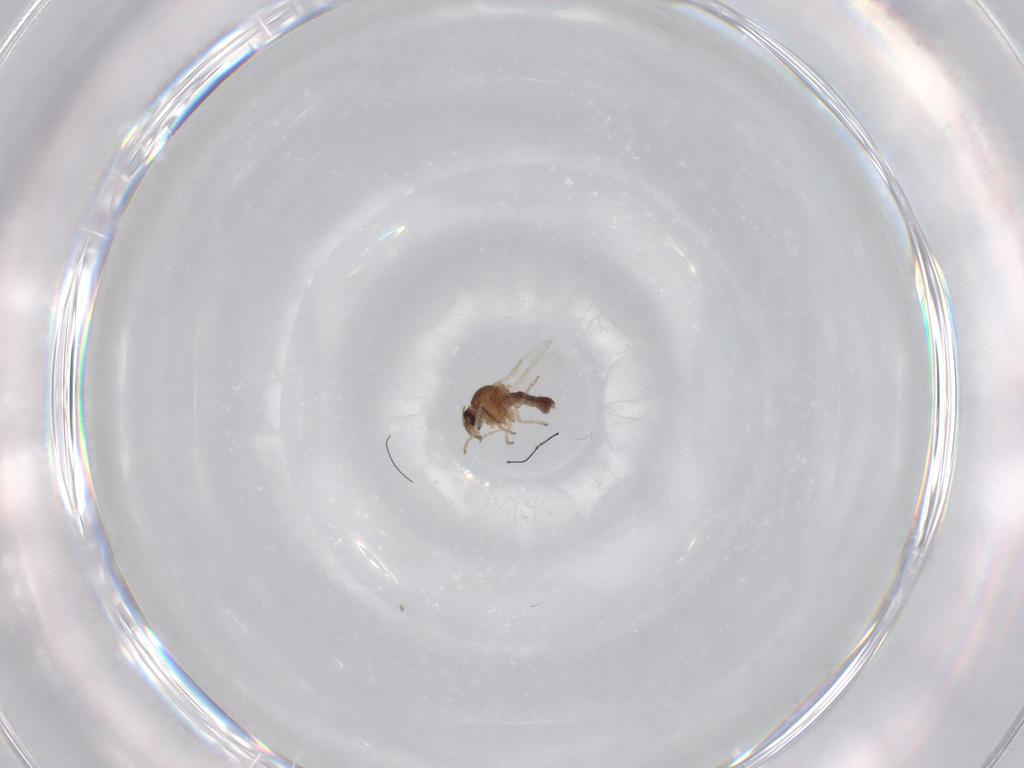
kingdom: Animalia
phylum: Arthropoda
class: Insecta
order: Diptera
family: Ceratopogonidae
